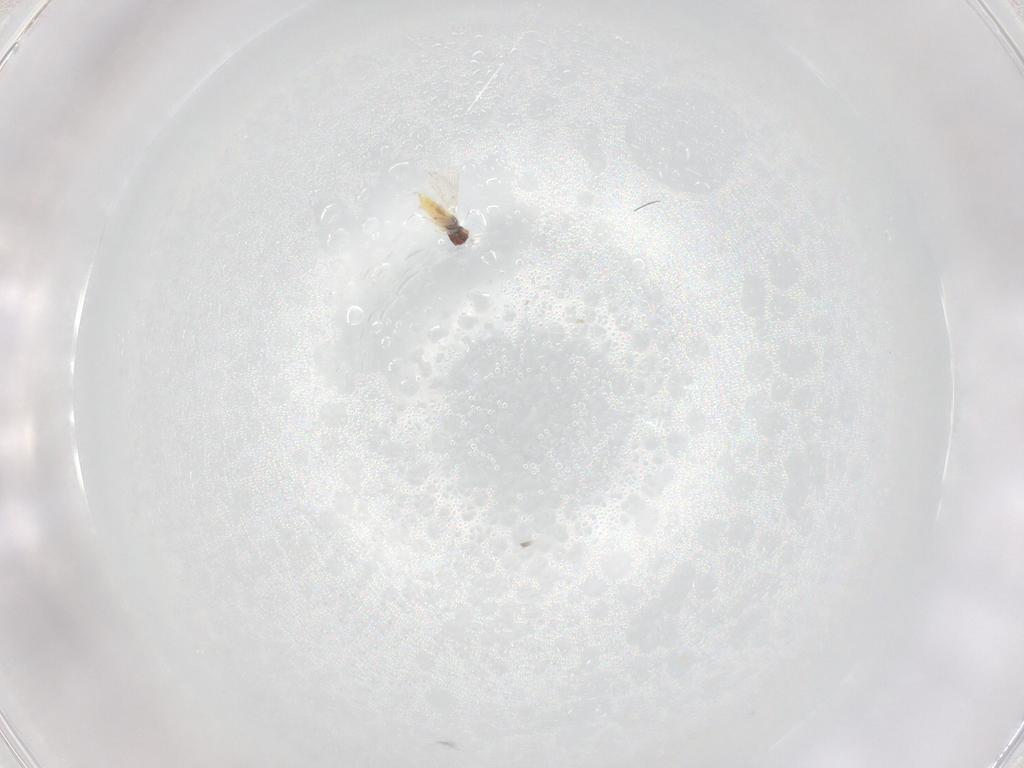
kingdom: Animalia
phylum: Arthropoda
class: Insecta
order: Hymenoptera
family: Trichogrammatidae
